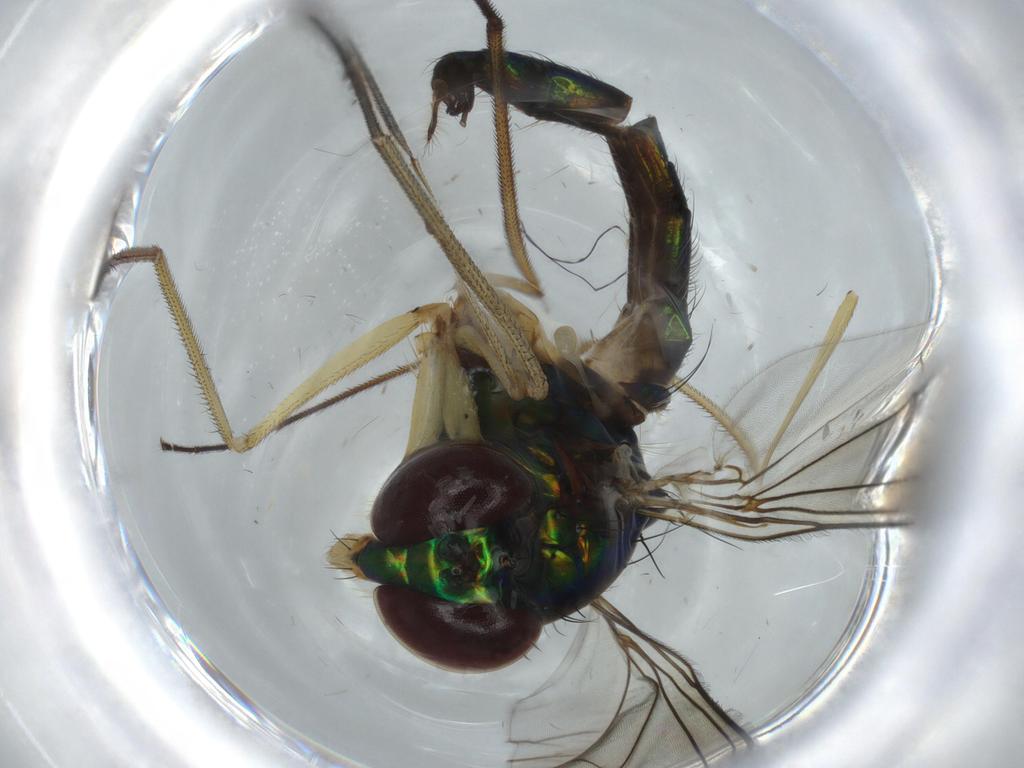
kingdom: Animalia
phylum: Arthropoda
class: Insecta
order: Diptera
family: Dolichopodidae
